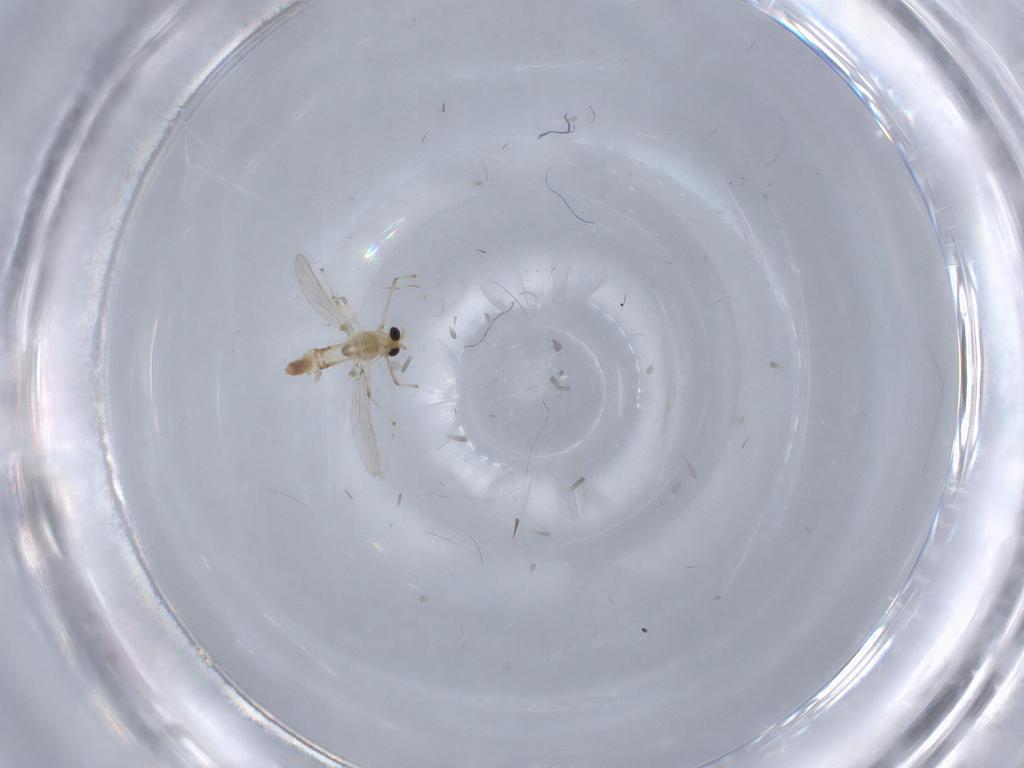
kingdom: Animalia
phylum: Arthropoda
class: Insecta
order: Diptera
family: Chironomidae
